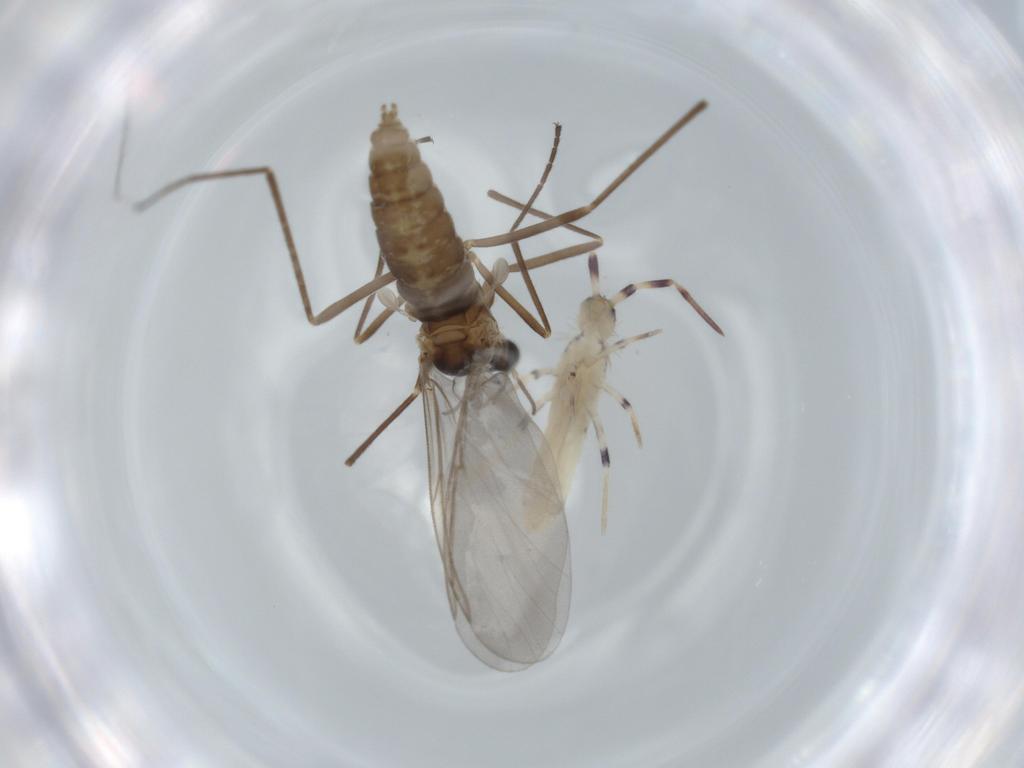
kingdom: Animalia
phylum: Arthropoda
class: Insecta
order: Diptera
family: Cecidomyiidae
